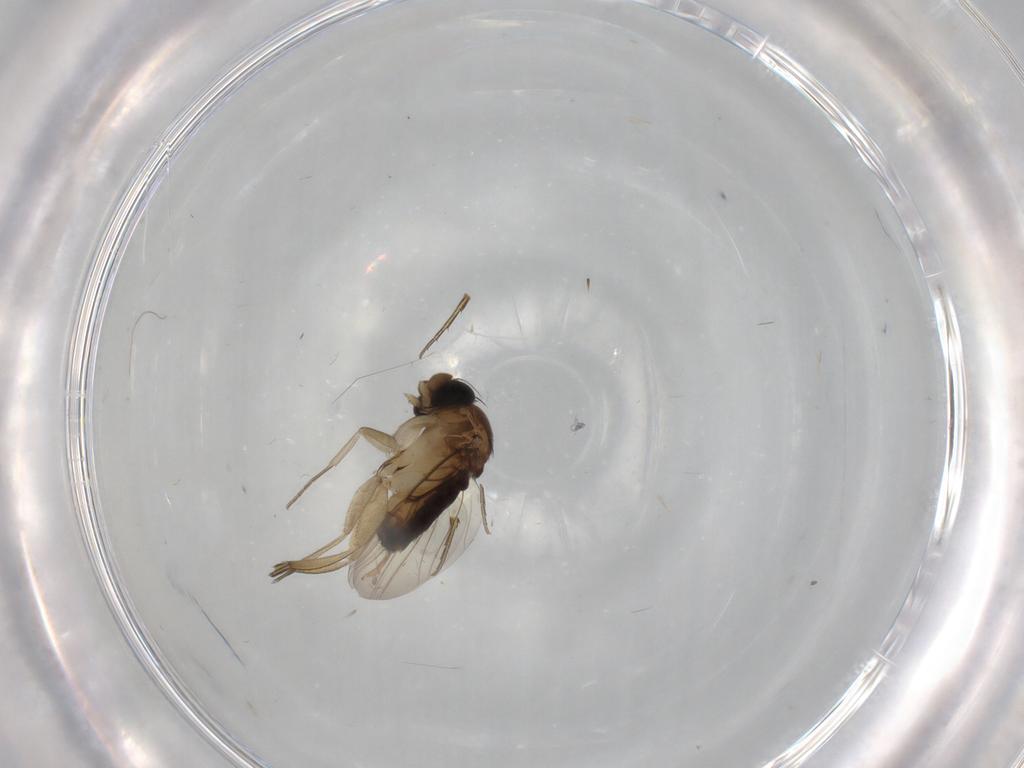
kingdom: Animalia
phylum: Arthropoda
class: Insecta
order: Diptera
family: Phoridae
